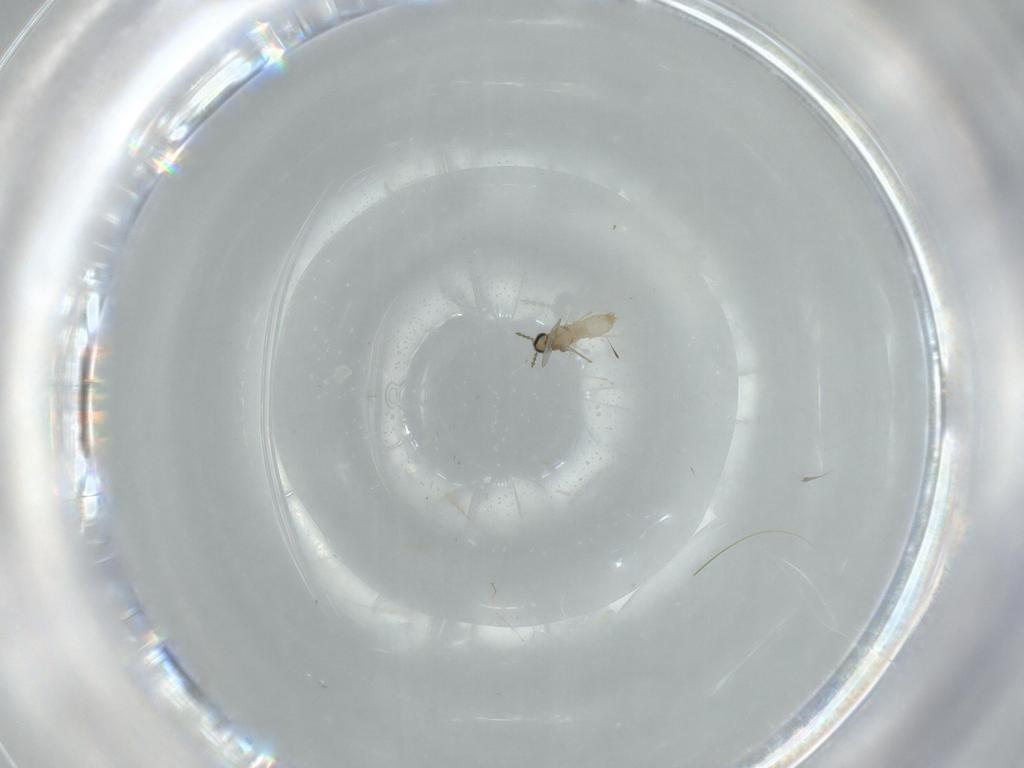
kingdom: Animalia
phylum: Arthropoda
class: Insecta
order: Diptera
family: Cecidomyiidae
